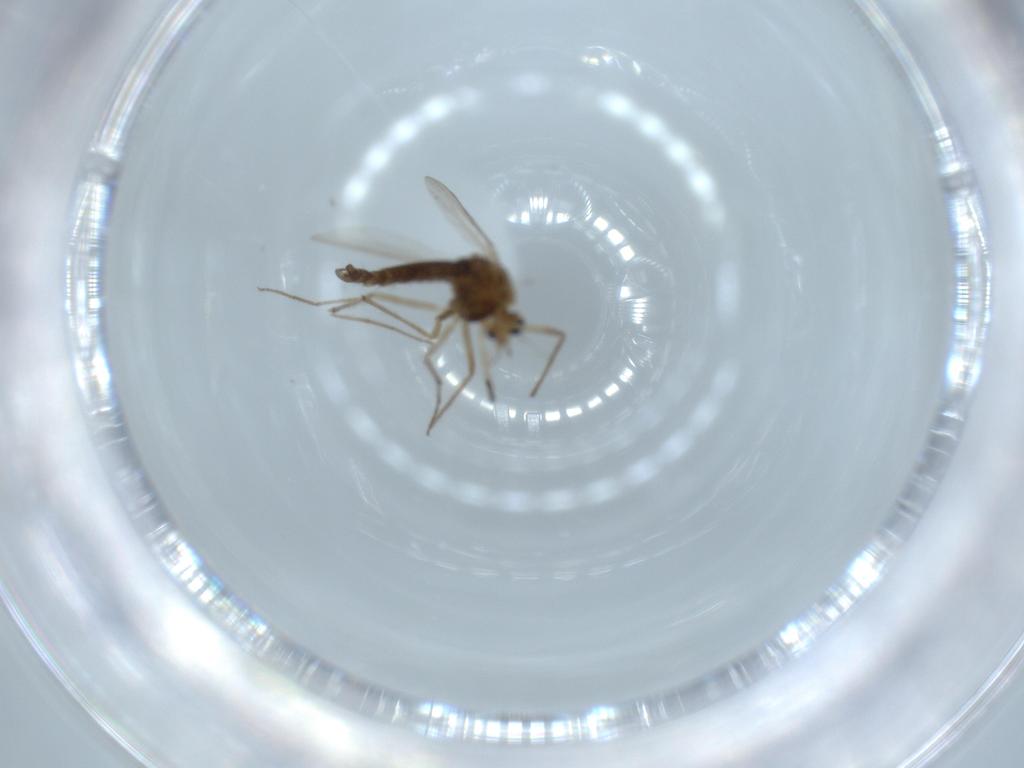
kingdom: Animalia
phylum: Arthropoda
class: Insecta
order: Diptera
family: Chironomidae
